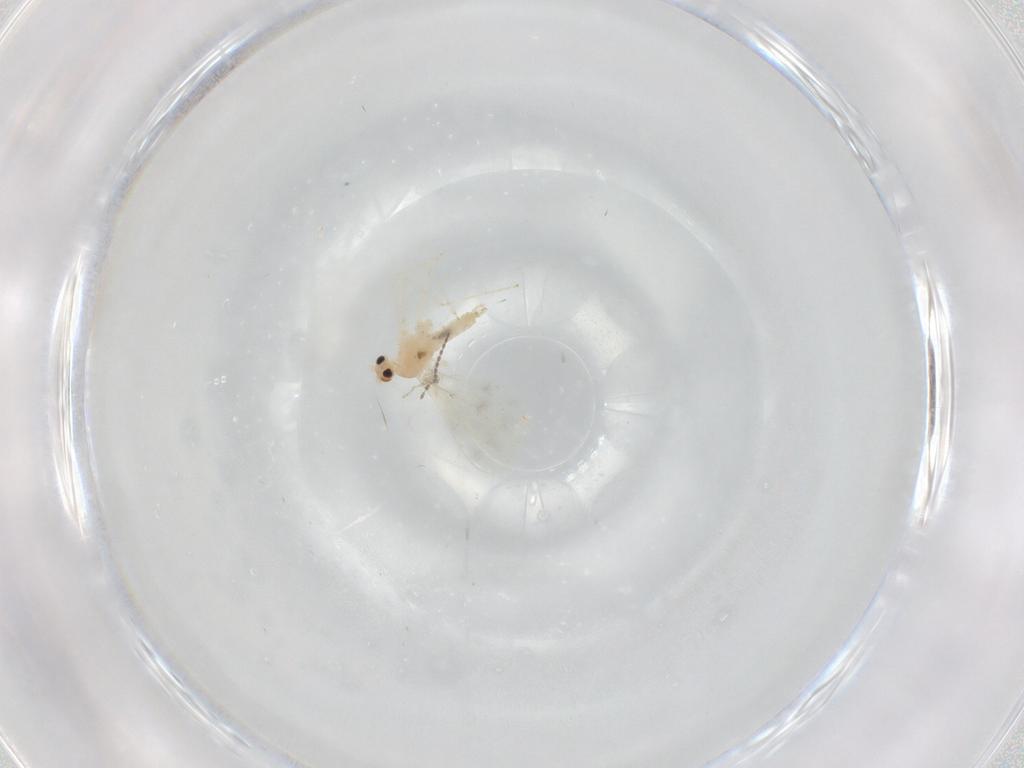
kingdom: Animalia
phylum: Arthropoda
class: Insecta
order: Diptera
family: Cecidomyiidae
